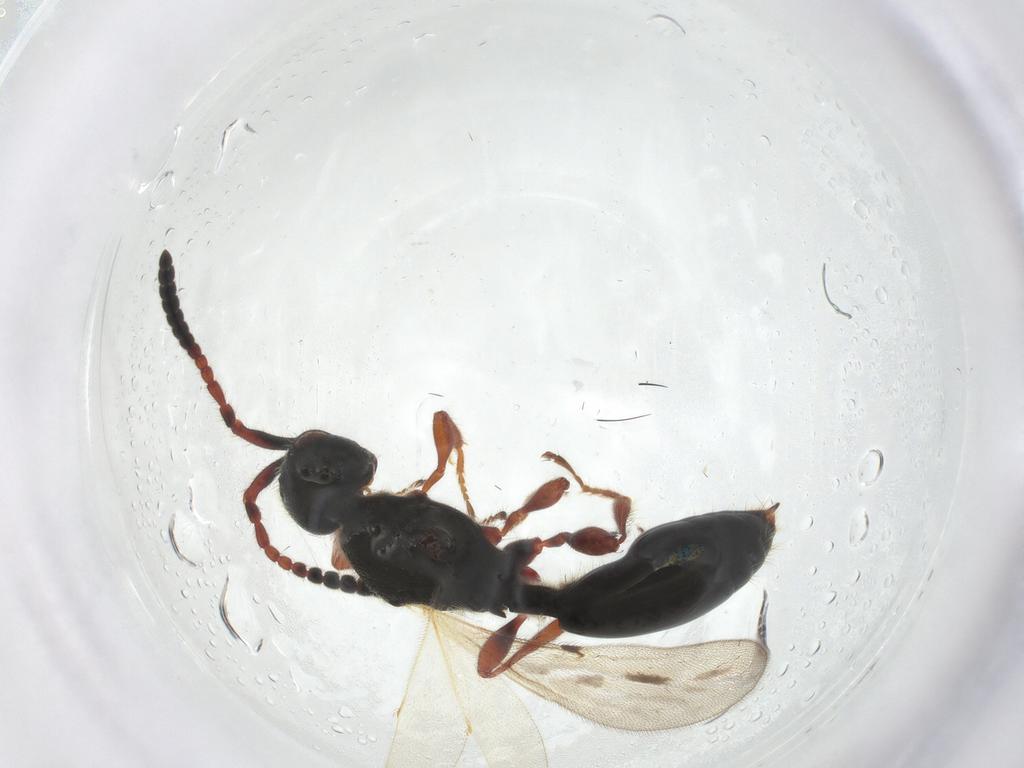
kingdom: Animalia
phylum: Arthropoda
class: Insecta
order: Hymenoptera
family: Diapriidae
